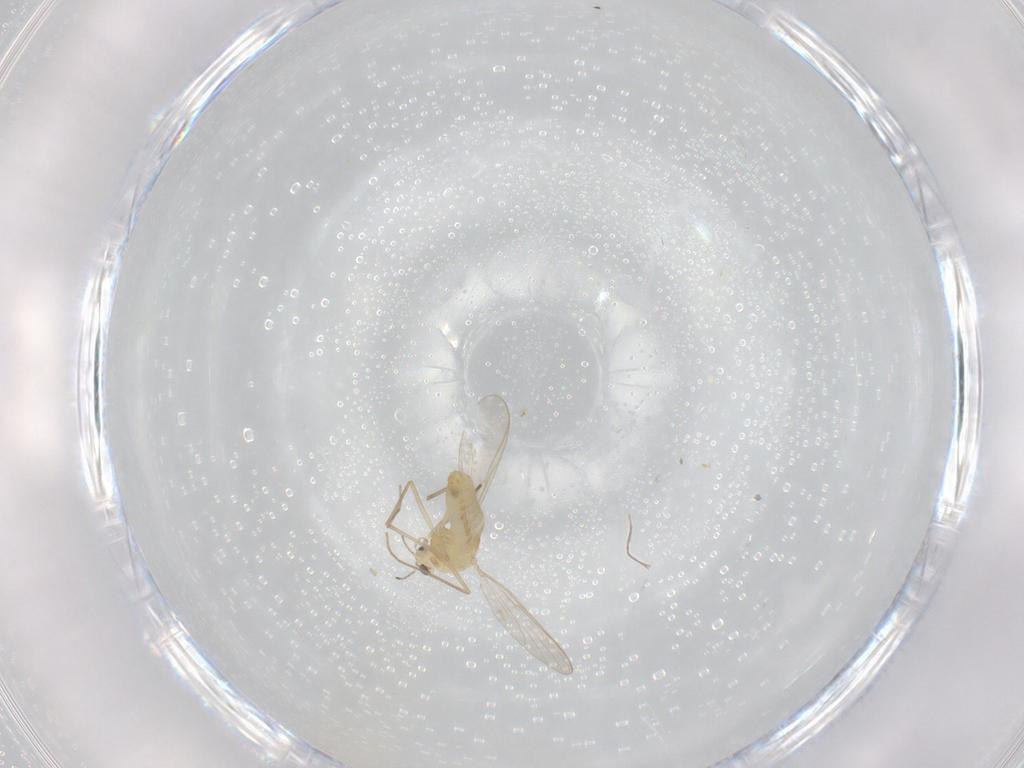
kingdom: Animalia
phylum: Arthropoda
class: Insecta
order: Diptera
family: Chironomidae
